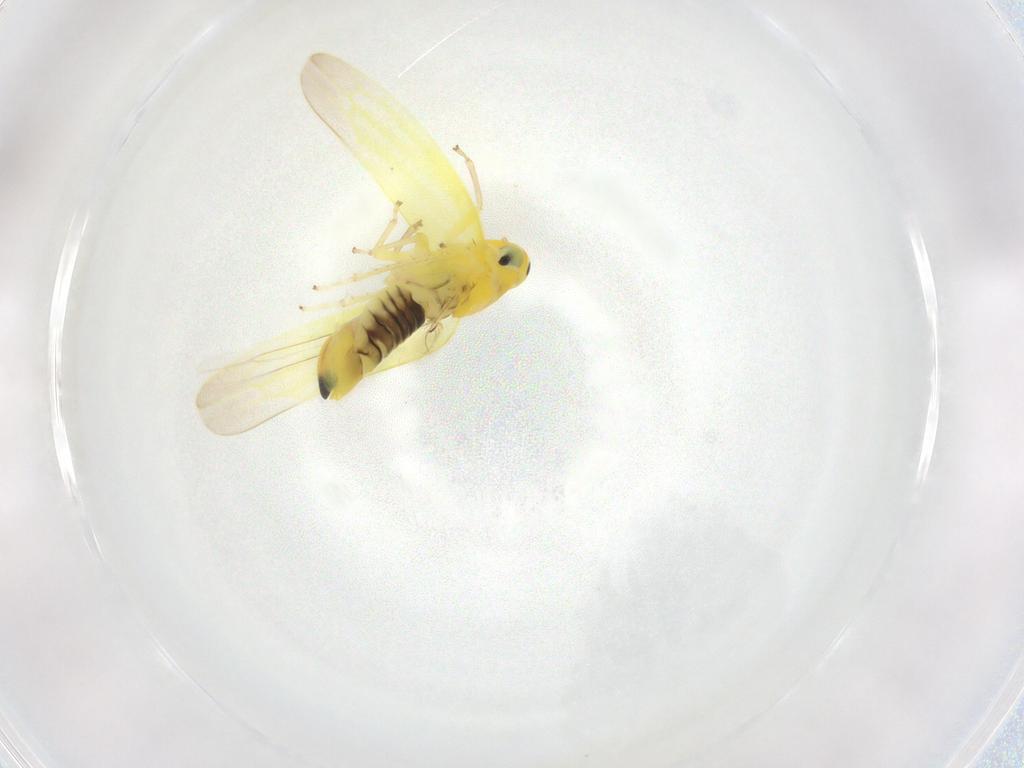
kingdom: Animalia
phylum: Arthropoda
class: Insecta
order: Hemiptera
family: Cicadellidae
